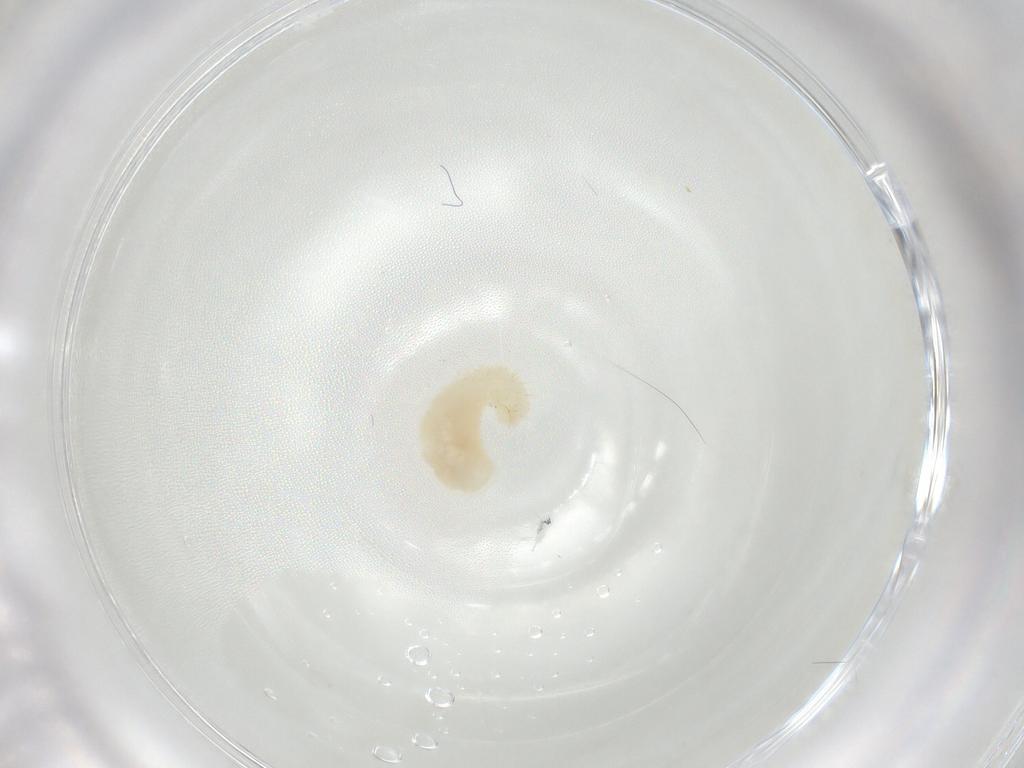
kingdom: Animalia
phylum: Arthropoda
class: Insecta
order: Hymenoptera
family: Formicidae
